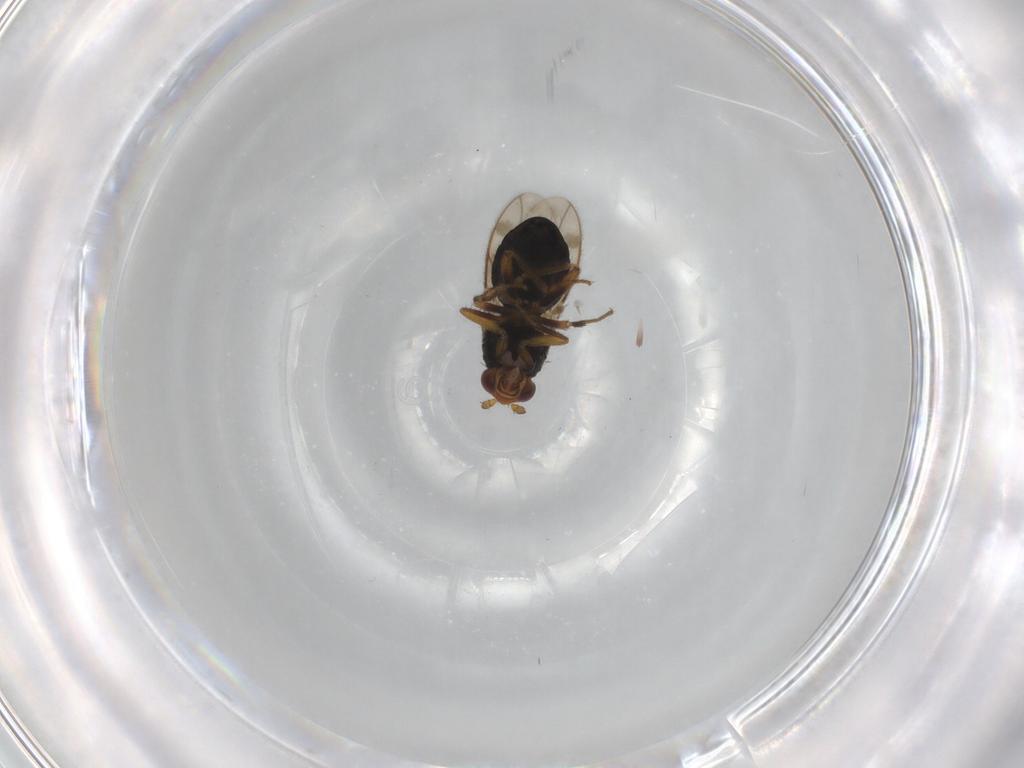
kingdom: Animalia
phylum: Arthropoda
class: Insecta
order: Diptera
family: Sphaeroceridae
